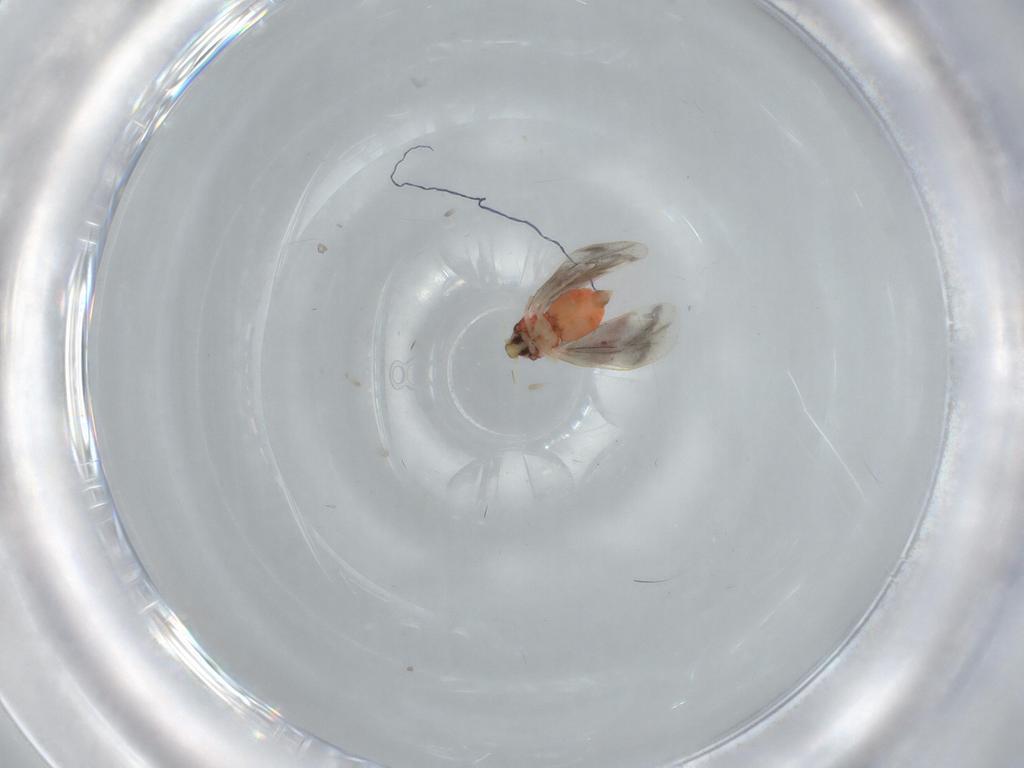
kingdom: Animalia
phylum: Arthropoda
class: Insecta
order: Hemiptera
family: Aleyrodidae
